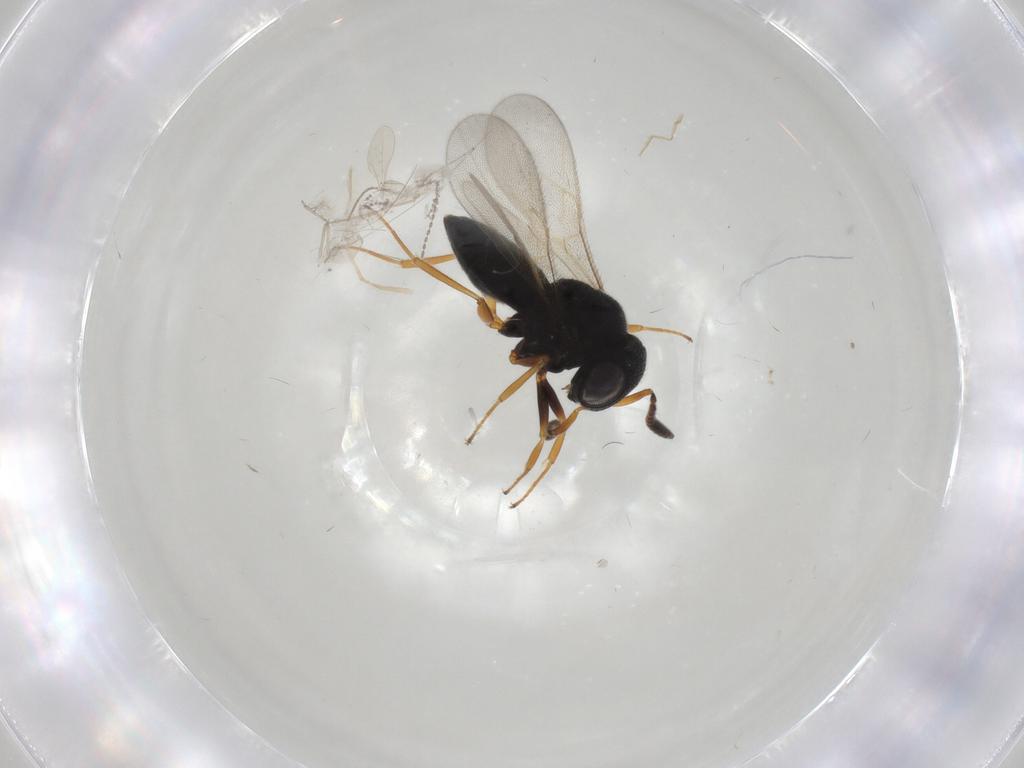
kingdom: Animalia
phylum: Arthropoda
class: Insecta
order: Hymenoptera
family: Scelionidae
